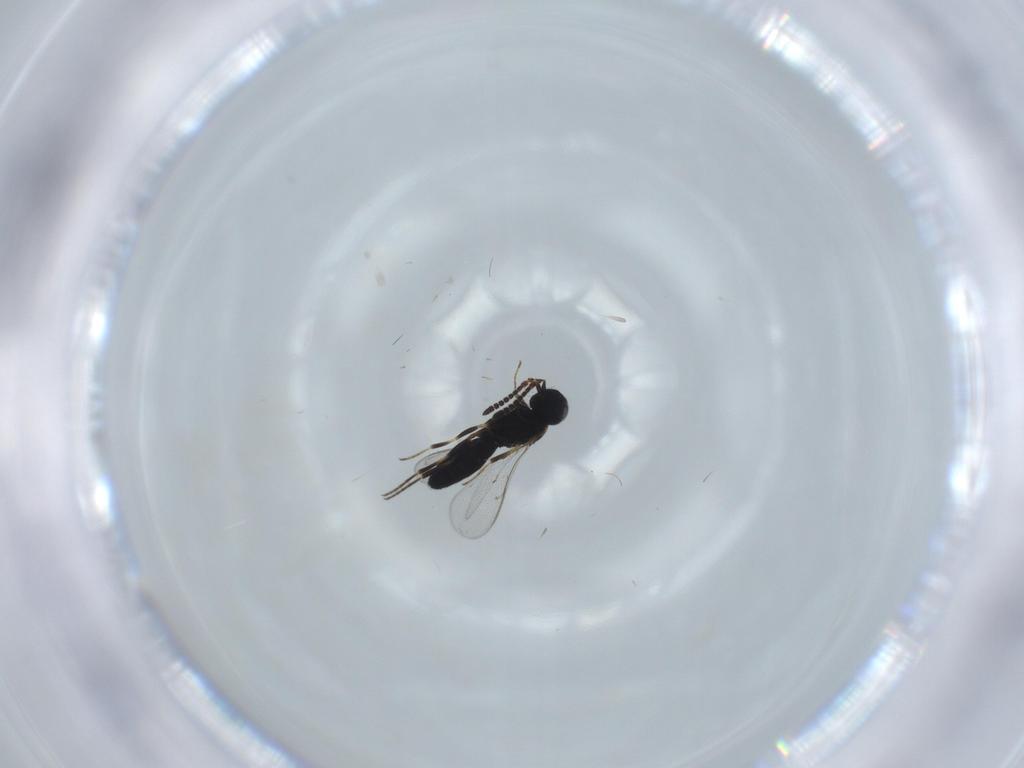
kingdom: Animalia
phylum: Arthropoda
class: Insecta
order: Hymenoptera
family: Scelionidae
